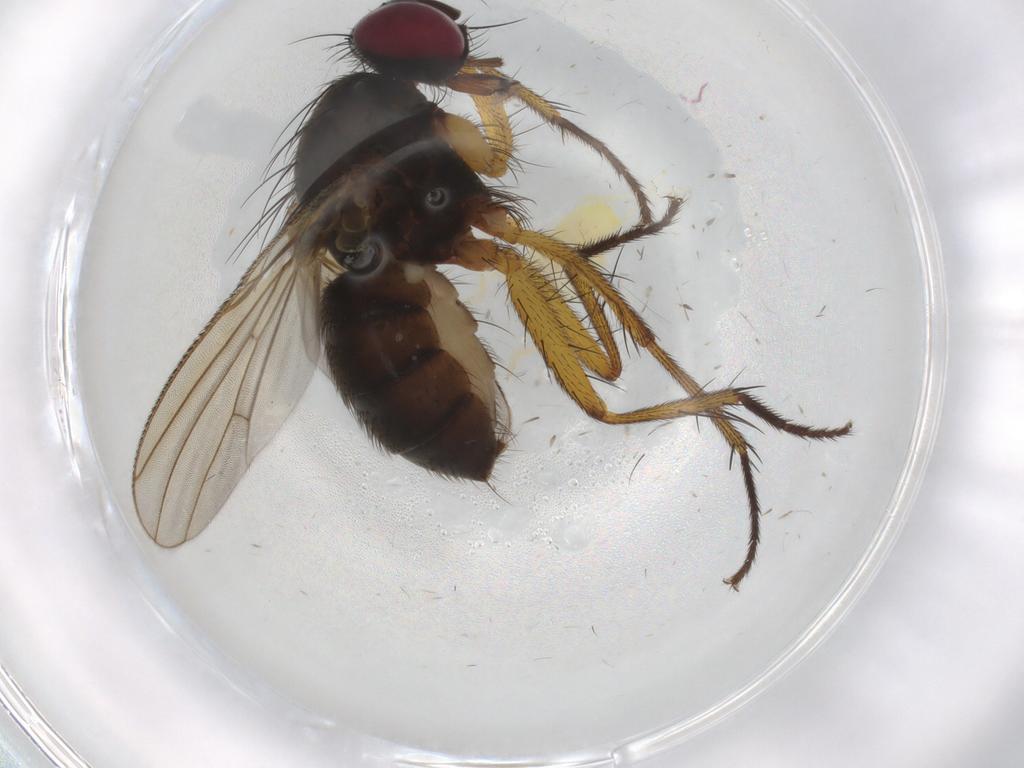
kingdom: Animalia
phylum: Arthropoda
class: Insecta
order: Diptera
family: Muscidae
